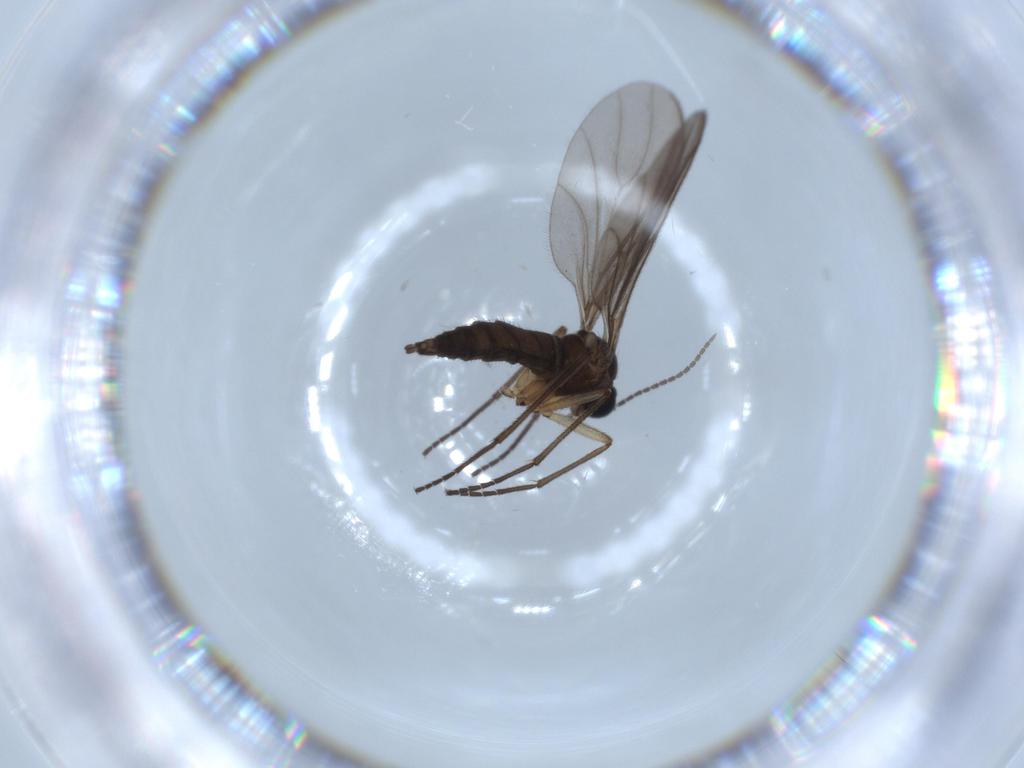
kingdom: Animalia
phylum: Arthropoda
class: Insecta
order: Diptera
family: Sciaridae
